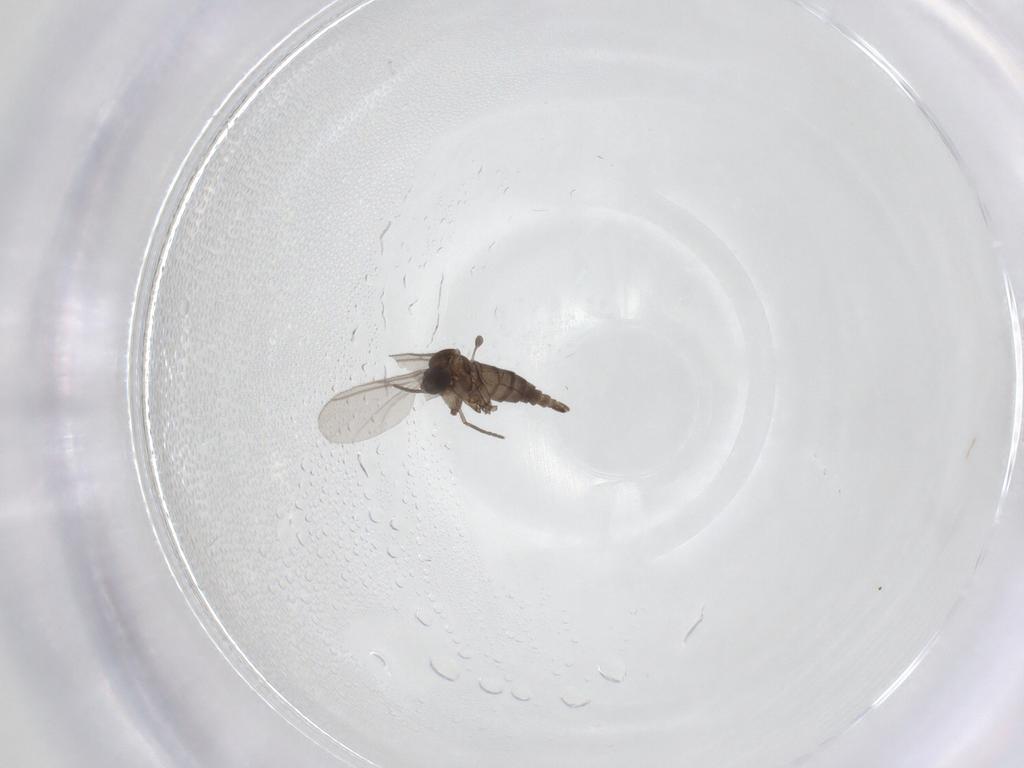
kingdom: Animalia
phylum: Arthropoda
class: Insecta
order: Diptera
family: Sciaridae
